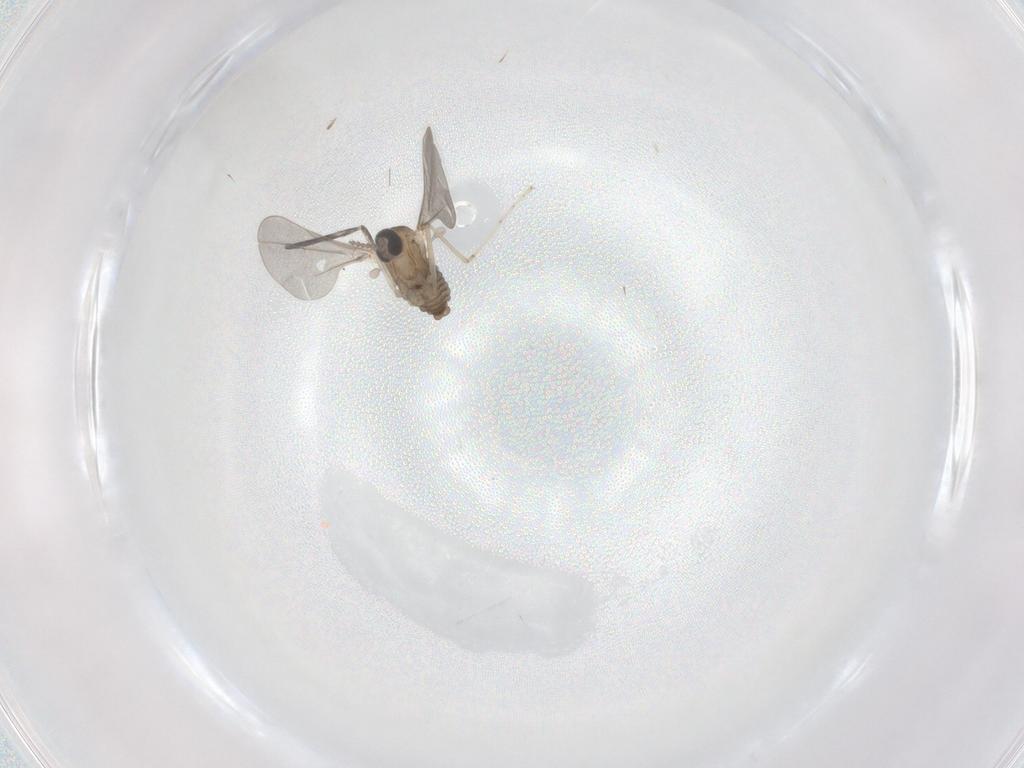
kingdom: Animalia
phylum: Arthropoda
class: Insecta
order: Diptera
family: Cecidomyiidae
